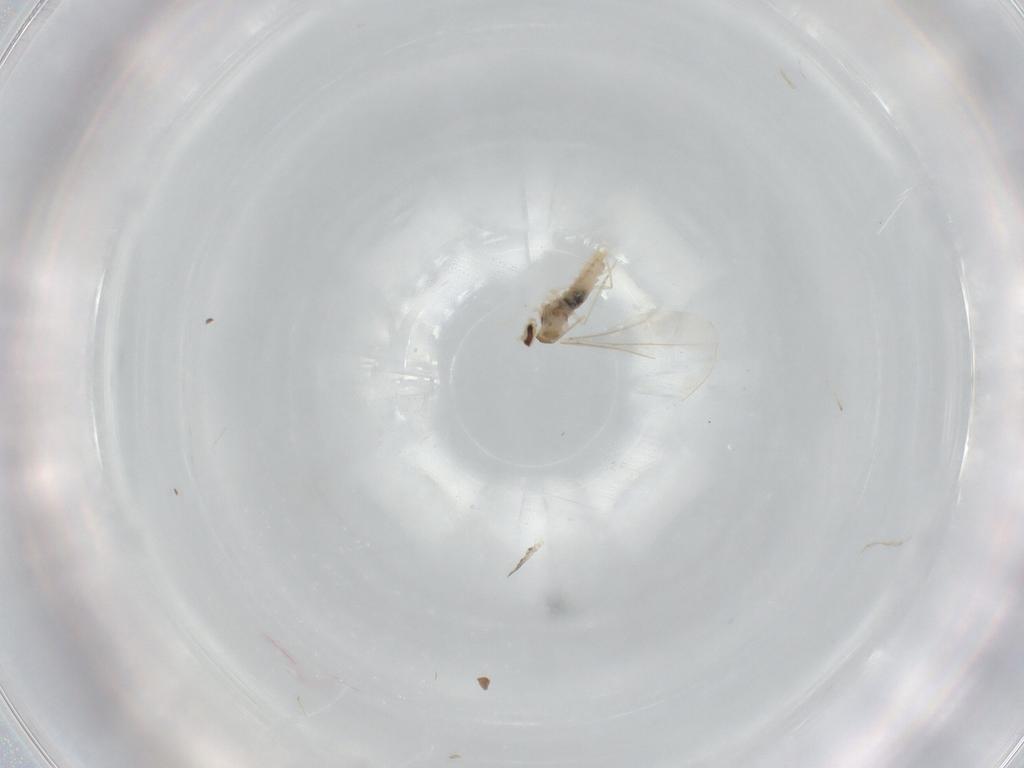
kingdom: Animalia
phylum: Arthropoda
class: Insecta
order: Diptera
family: Cecidomyiidae
